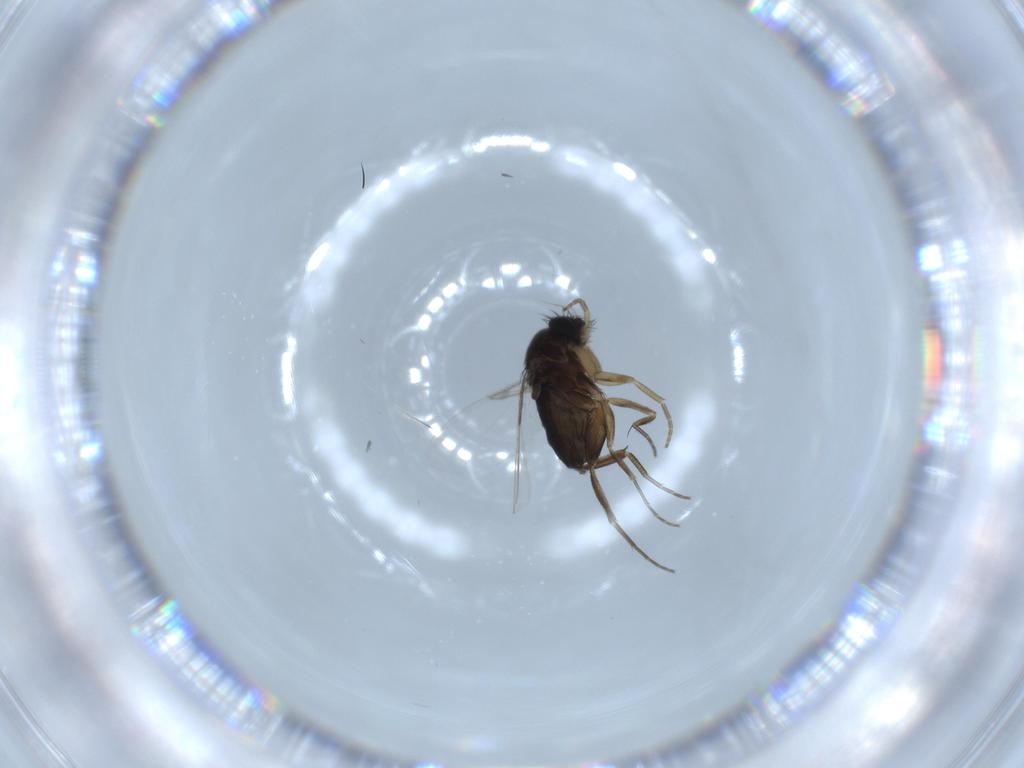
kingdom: Animalia
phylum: Arthropoda
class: Insecta
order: Diptera
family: Phoridae
